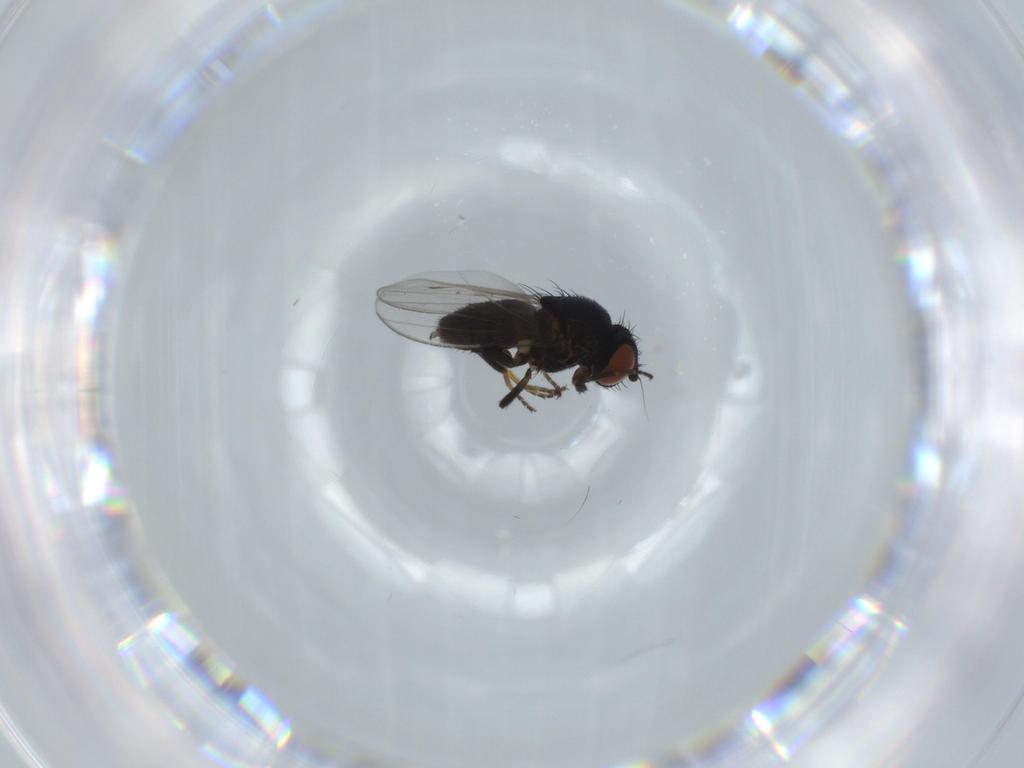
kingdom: Animalia
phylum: Arthropoda
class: Insecta
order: Diptera
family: Milichiidae
